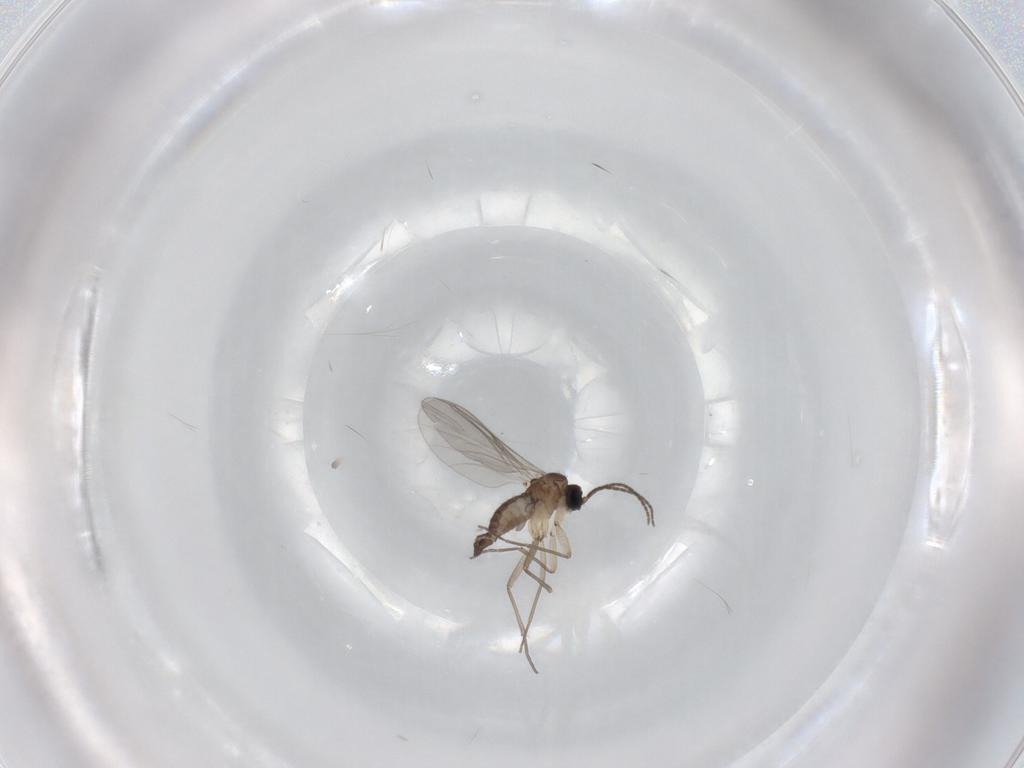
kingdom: Animalia
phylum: Arthropoda
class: Insecta
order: Diptera
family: Sciaridae
